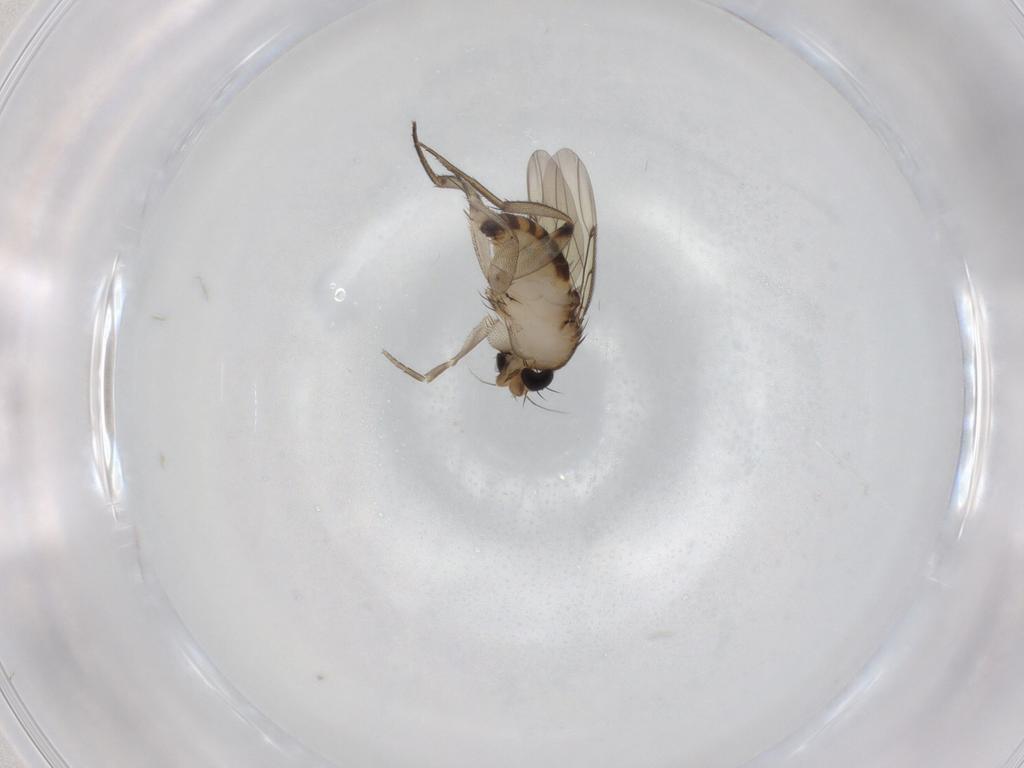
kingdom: Animalia
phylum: Arthropoda
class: Insecta
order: Diptera
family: Phoridae
